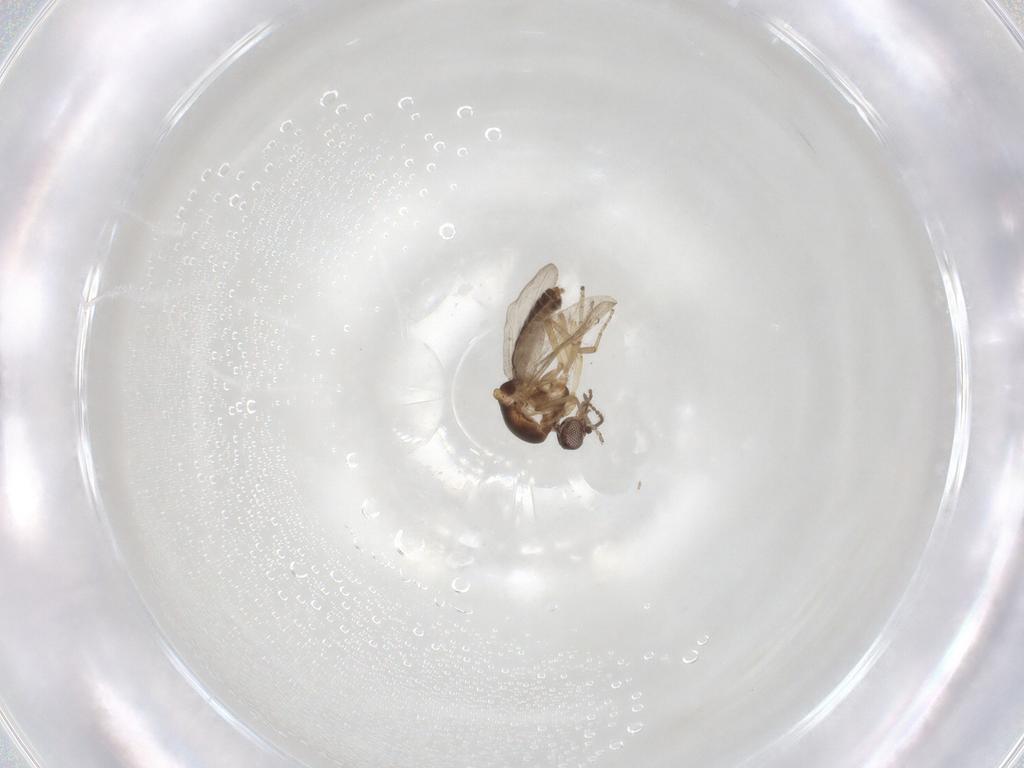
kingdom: Animalia
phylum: Arthropoda
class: Insecta
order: Diptera
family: Ceratopogonidae
